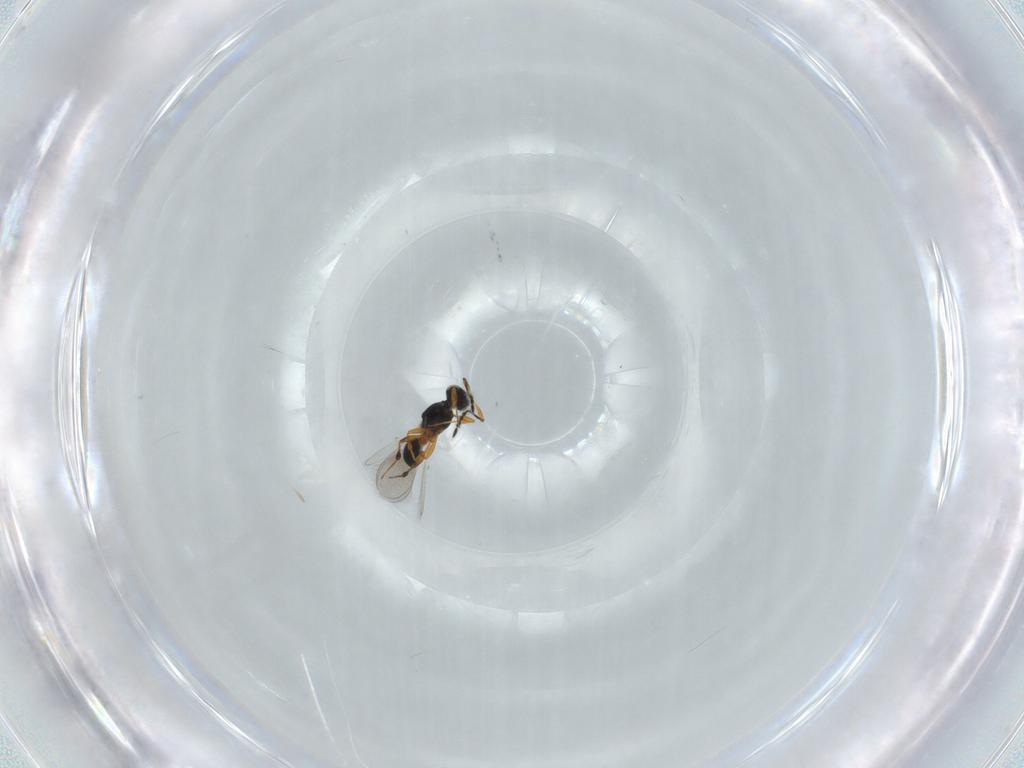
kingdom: Animalia
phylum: Arthropoda
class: Insecta
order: Hymenoptera
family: Platygastridae
